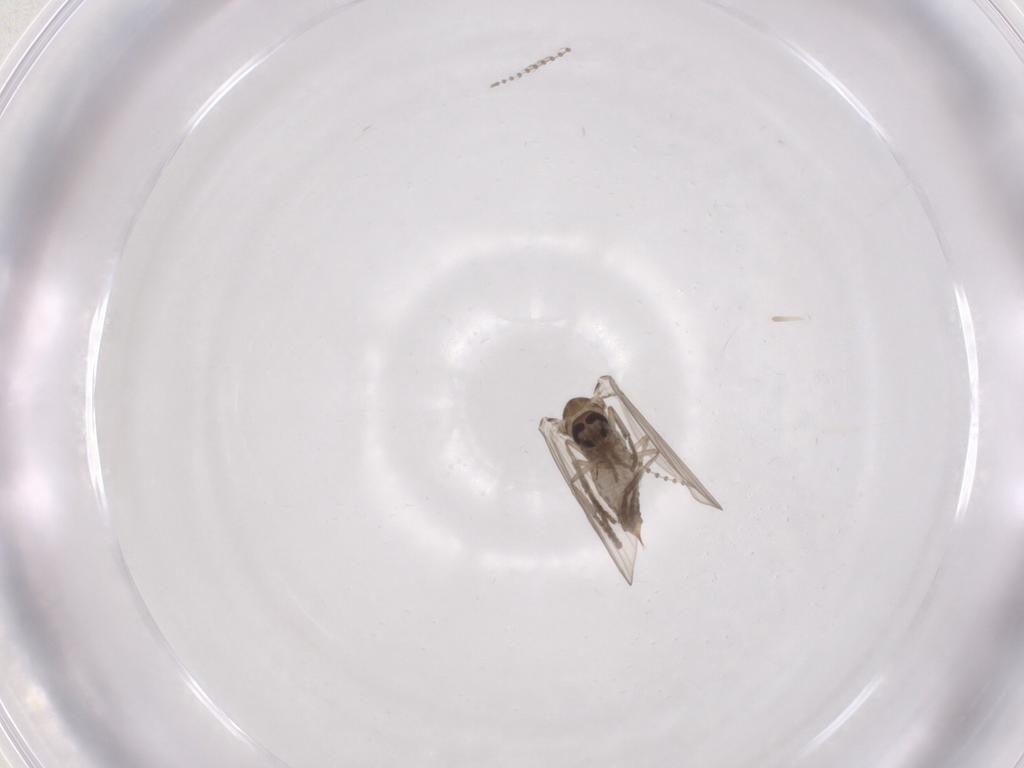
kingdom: Animalia
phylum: Arthropoda
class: Insecta
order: Diptera
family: Psychodidae
